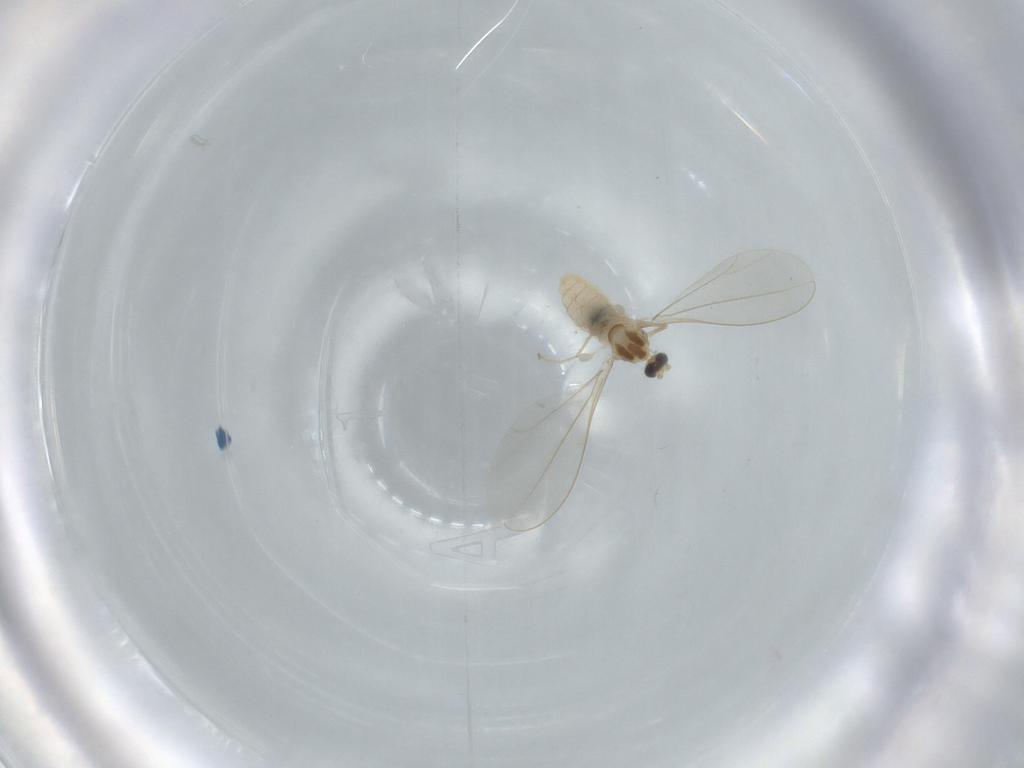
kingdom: Animalia
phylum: Arthropoda
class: Insecta
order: Diptera
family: Cecidomyiidae
